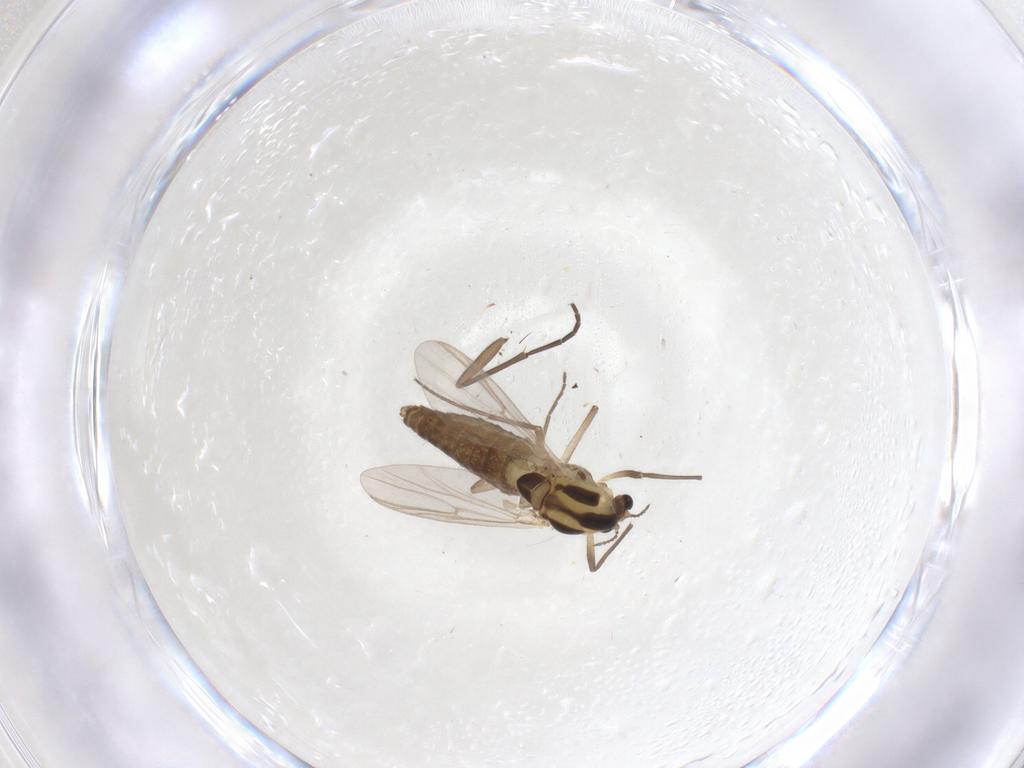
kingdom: Animalia
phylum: Arthropoda
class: Insecta
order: Diptera
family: Chironomidae
